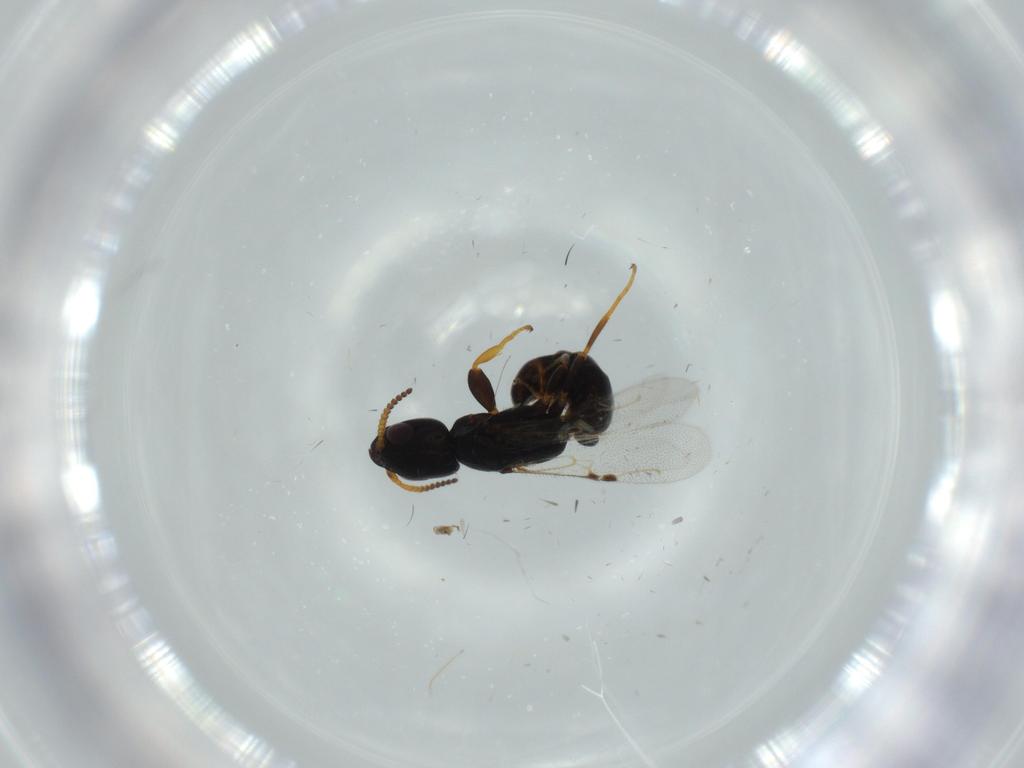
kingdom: Animalia
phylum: Arthropoda
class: Insecta
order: Hymenoptera
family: Bethylidae
